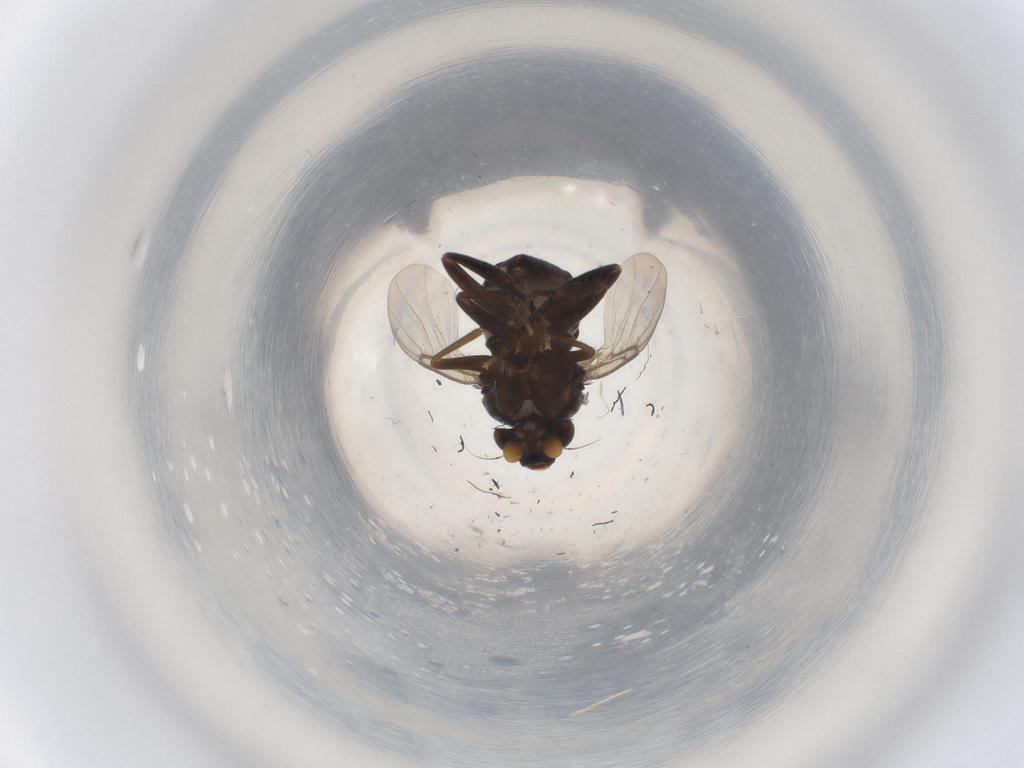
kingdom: Animalia
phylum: Arthropoda
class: Insecta
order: Diptera
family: Phoridae
